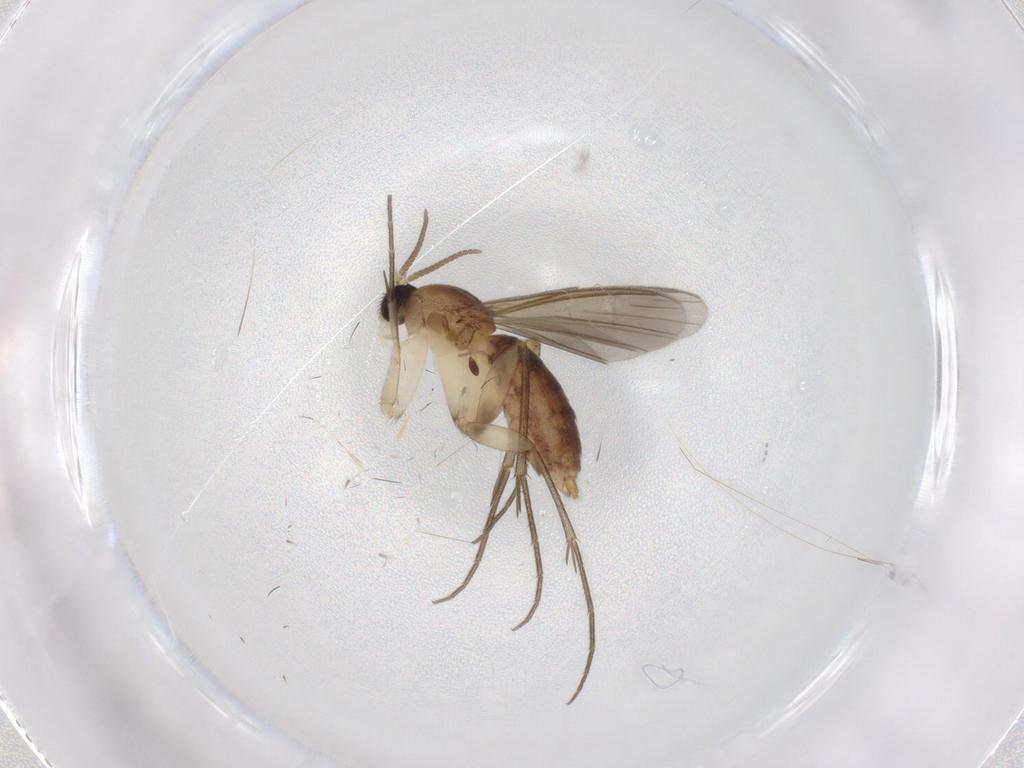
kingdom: Animalia
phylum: Arthropoda
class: Insecta
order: Diptera
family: Mycetophilidae
